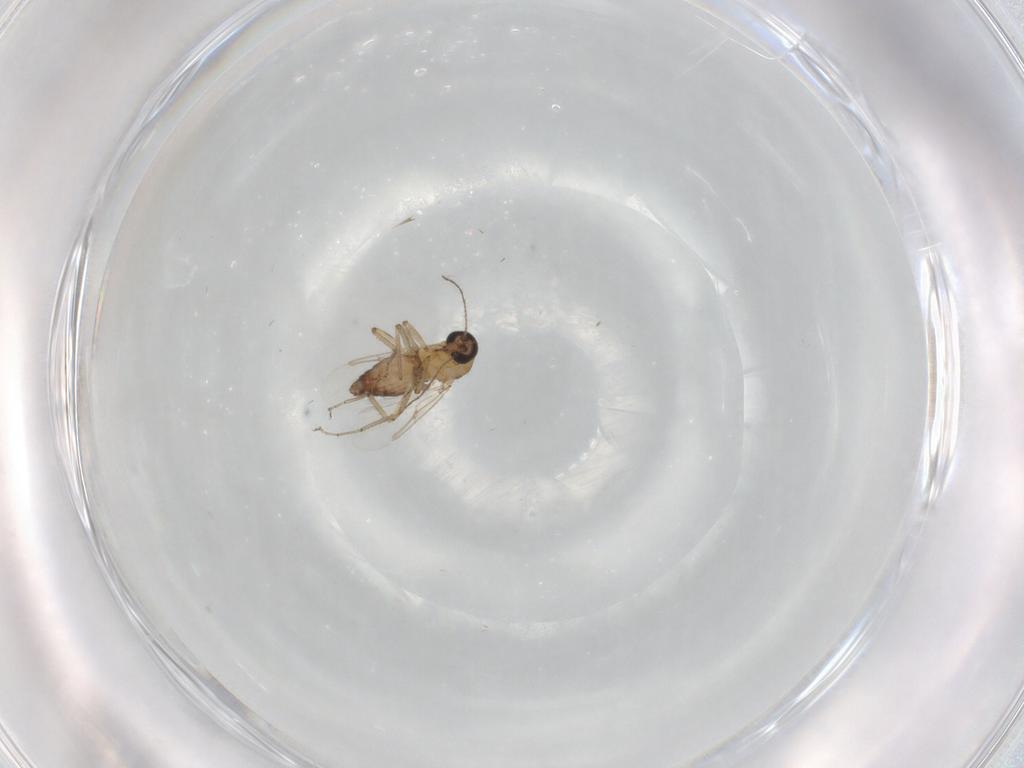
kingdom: Animalia
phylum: Arthropoda
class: Insecta
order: Diptera
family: Ceratopogonidae
